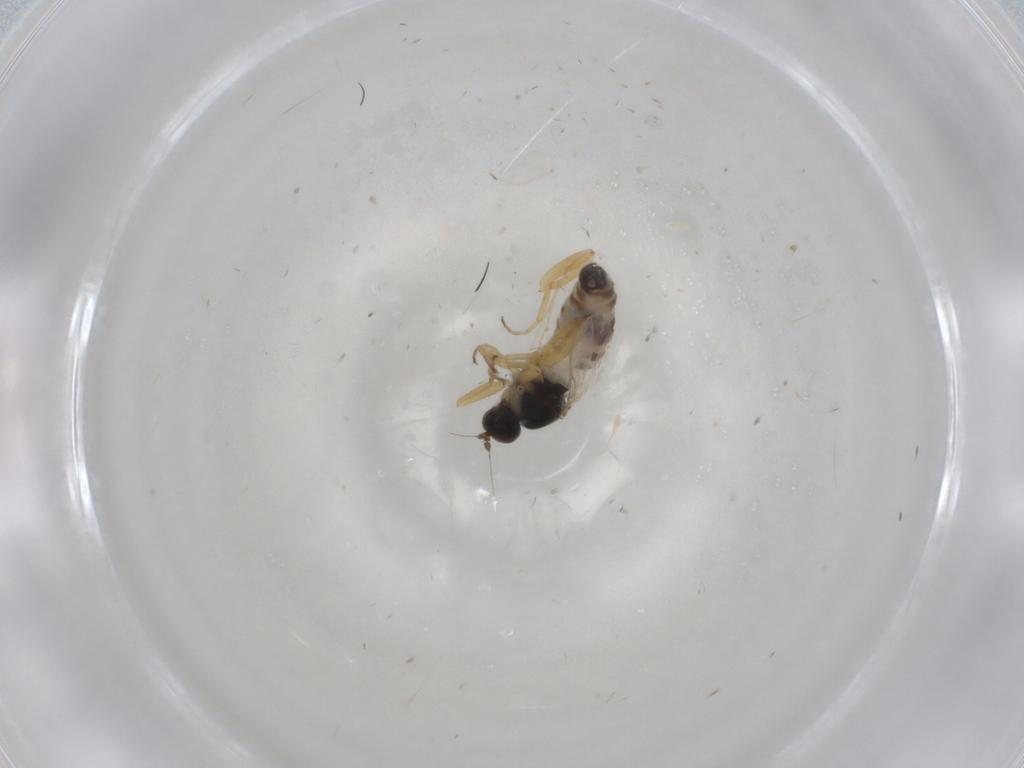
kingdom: Animalia
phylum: Arthropoda
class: Insecta
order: Diptera
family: Hybotidae
